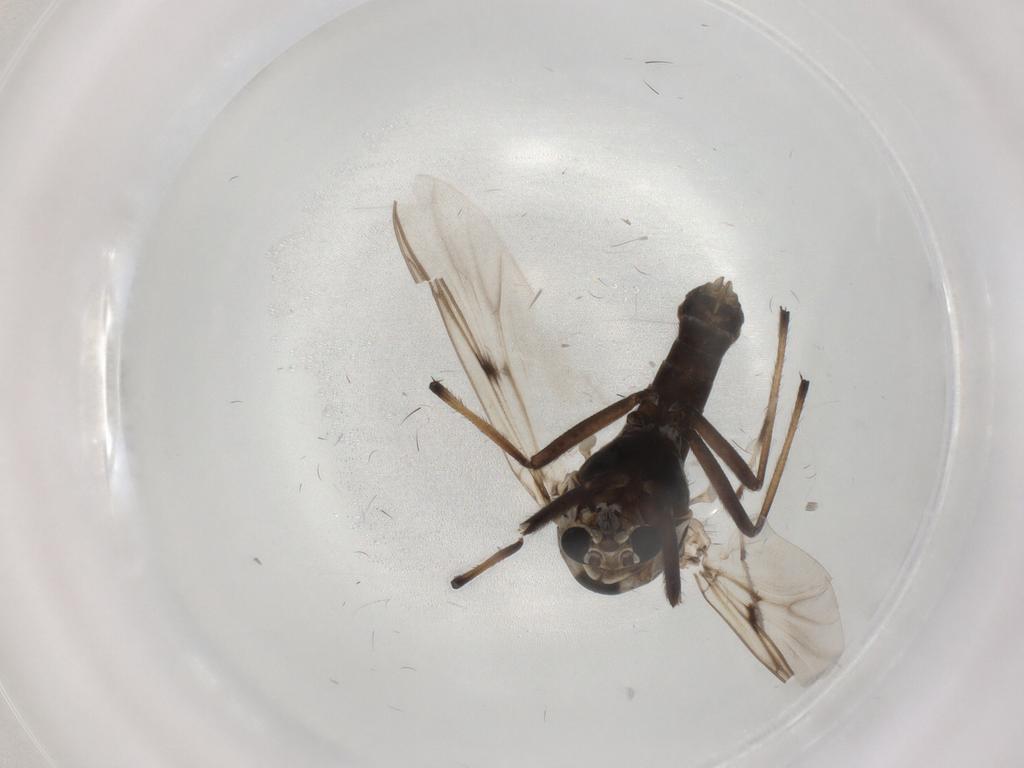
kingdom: Animalia
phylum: Arthropoda
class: Insecta
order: Diptera
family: Chironomidae
